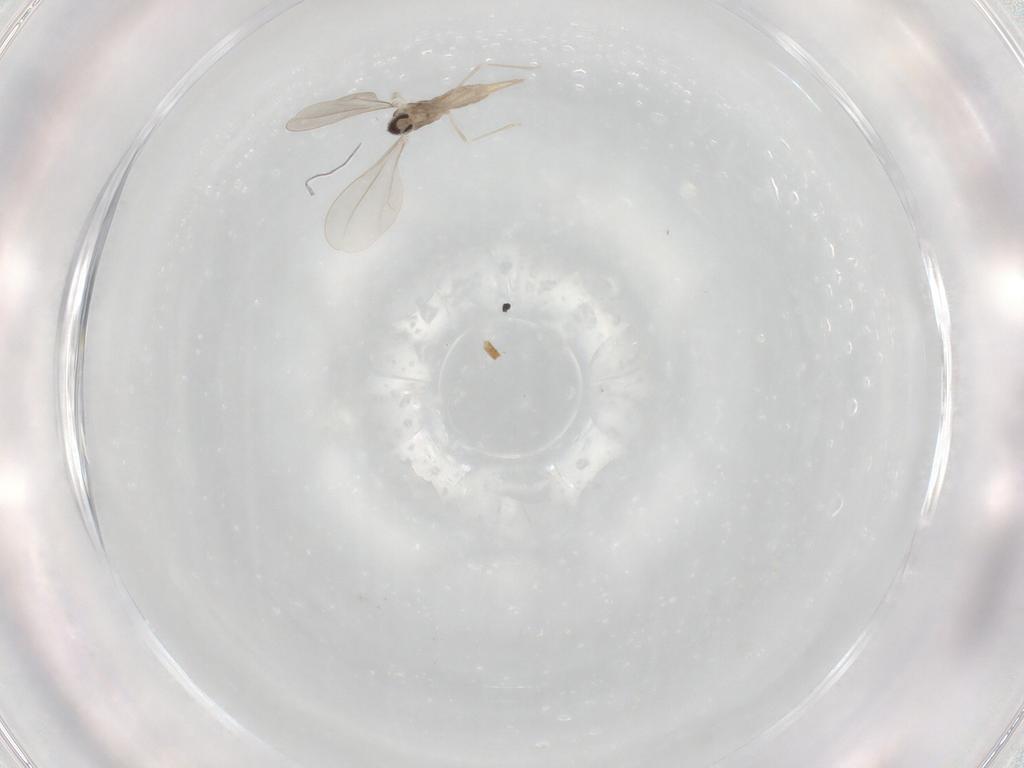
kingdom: Animalia
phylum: Arthropoda
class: Insecta
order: Diptera
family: Cecidomyiidae
